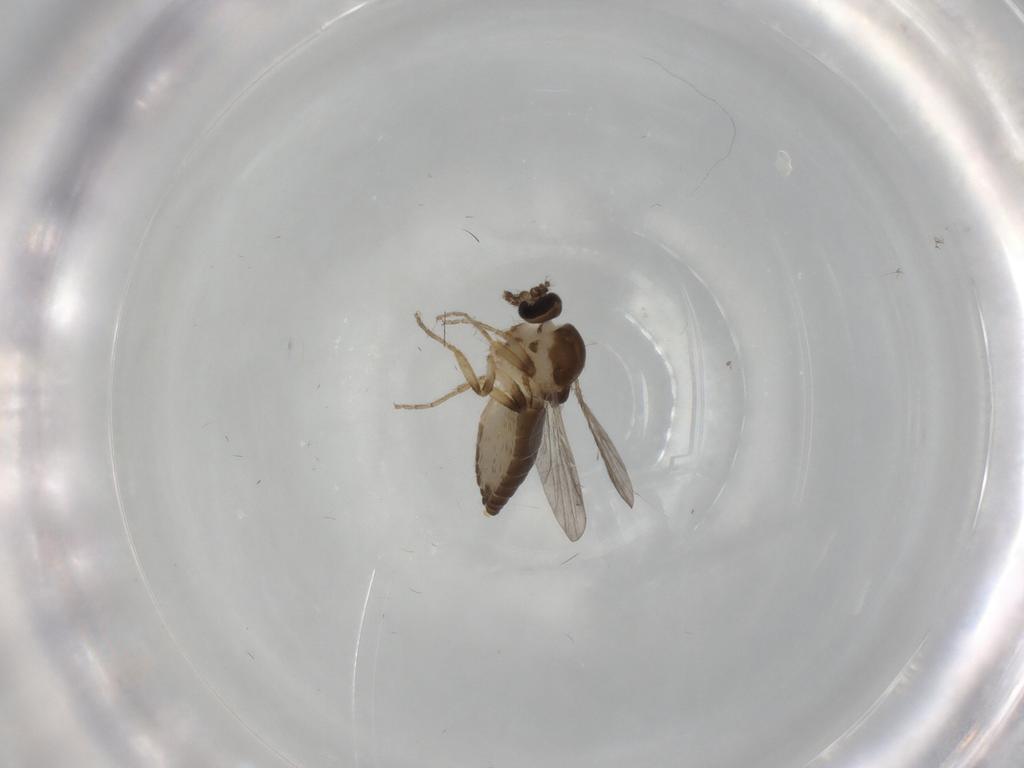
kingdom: Animalia
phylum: Arthropoda
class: Insecta
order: Diptera
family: Ceratopogonidae
